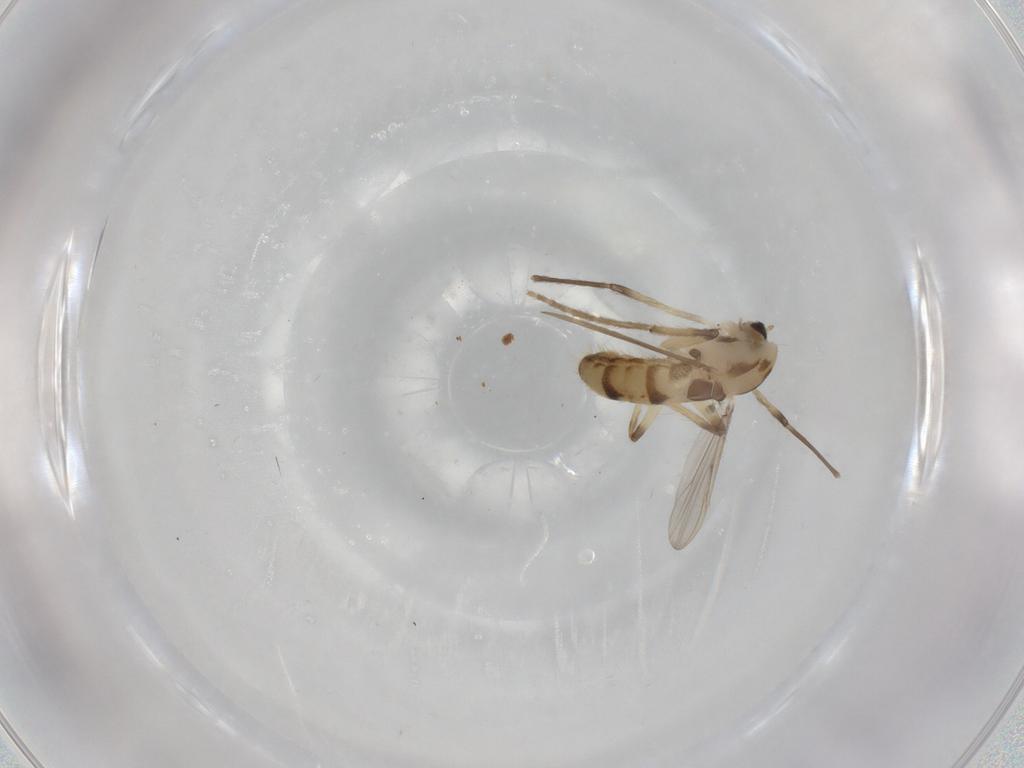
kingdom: Animalia
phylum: Arthropoda
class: Insecta
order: Diptera
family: Chironomidae
